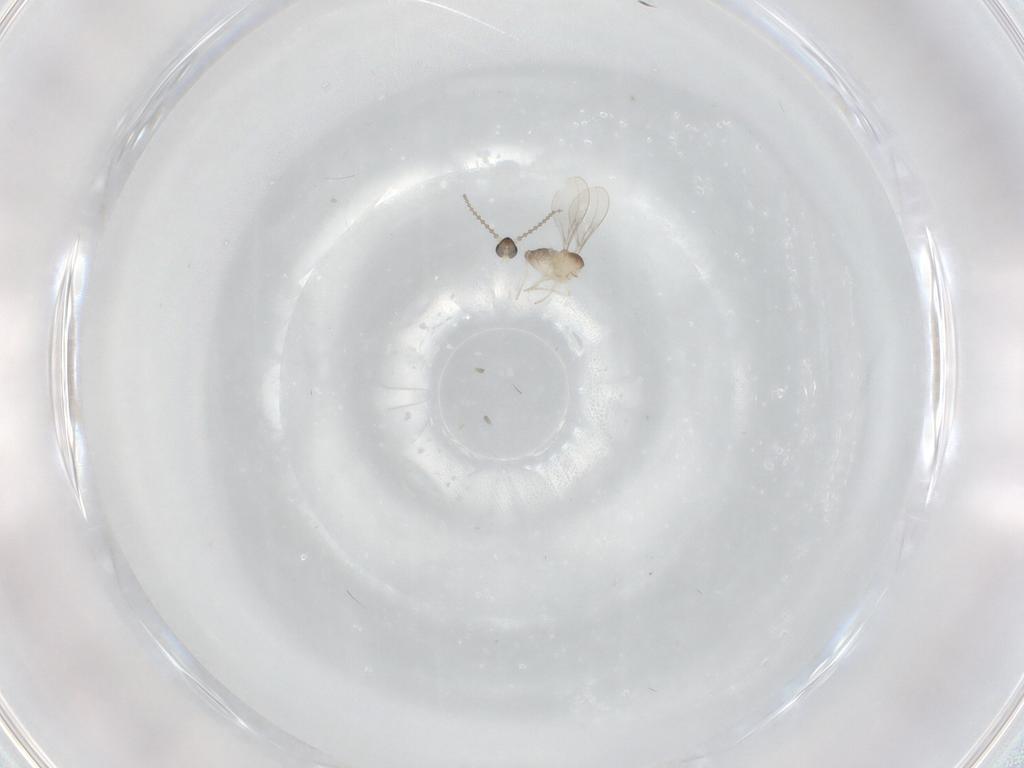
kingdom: Animalia
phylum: Arthropoda
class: Insecta
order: Diptera
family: Cecidomyiidae
